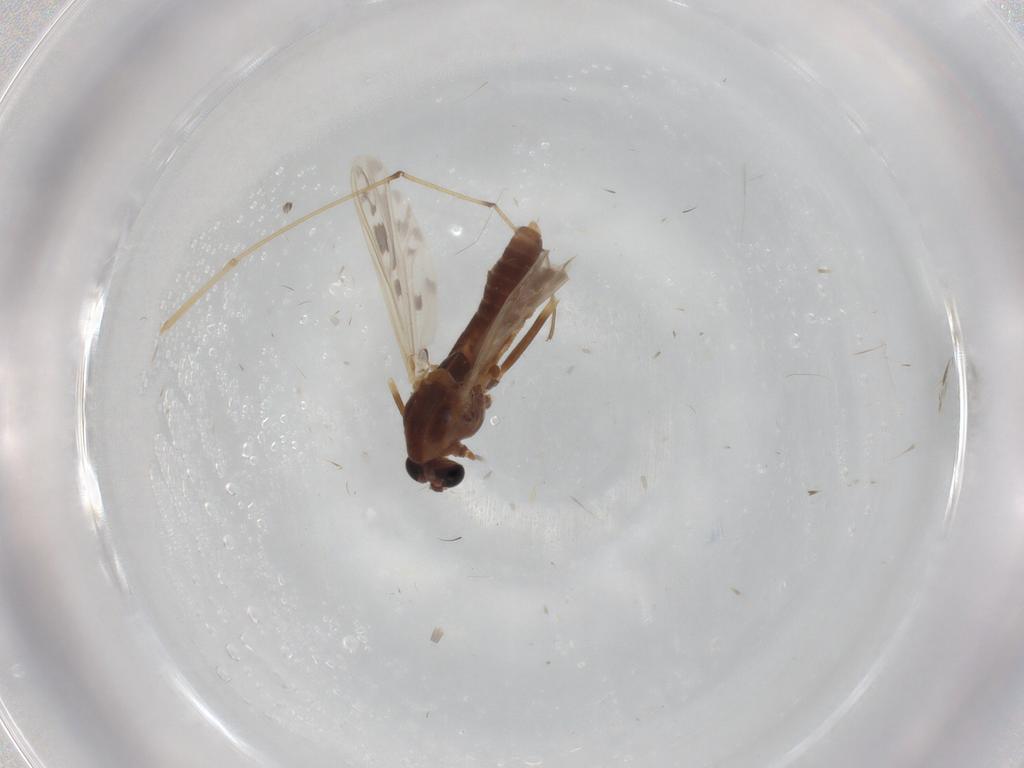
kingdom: Animalia
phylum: Arthropoda
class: Insecta
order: Diptera
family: Chironomidae
